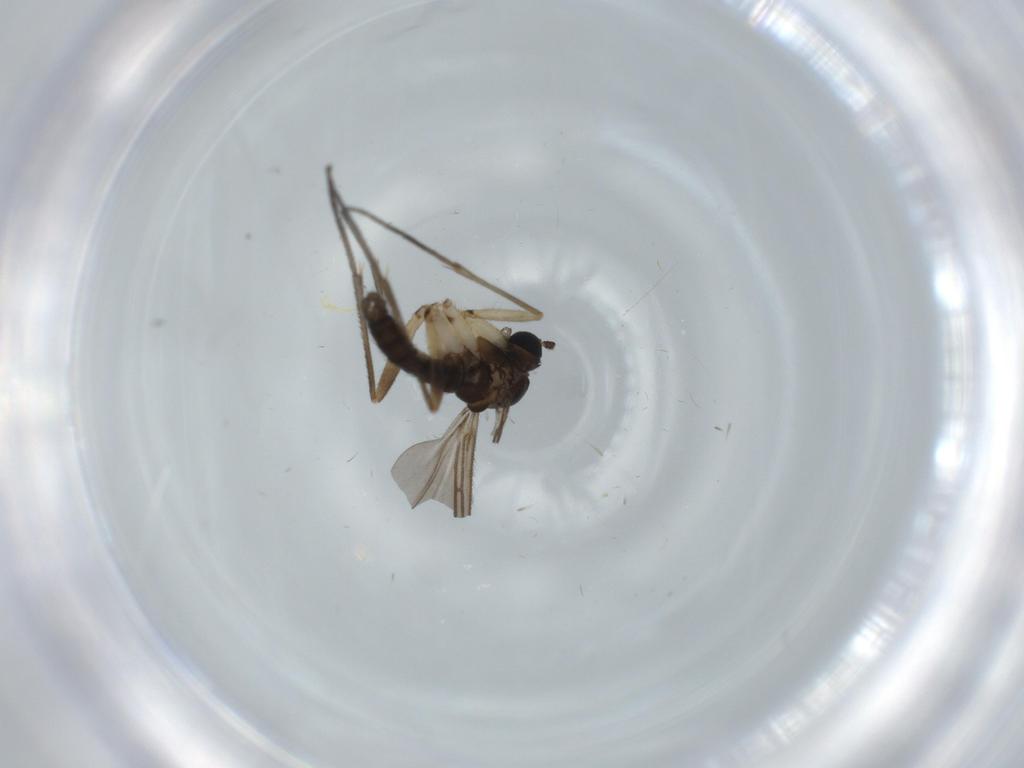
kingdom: Animalia
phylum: Arthropoda
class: Insecta
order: Diptera
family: Sciaridae
